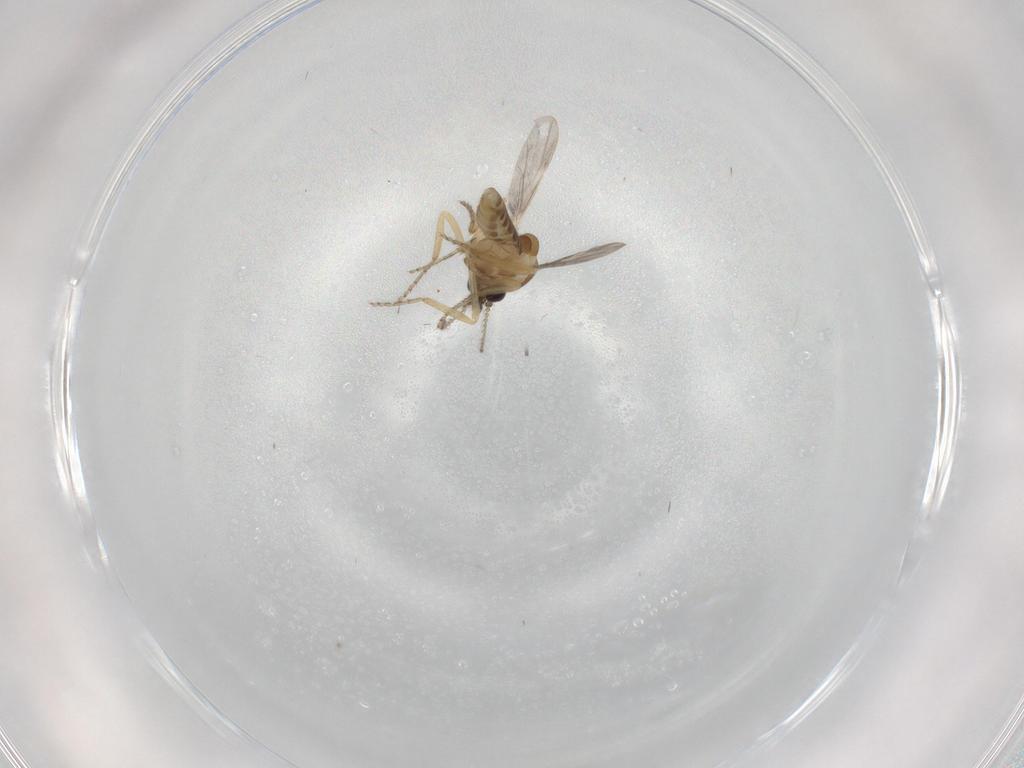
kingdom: Animalia
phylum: Arthropoda
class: Insecta
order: Diptera
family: Ceratopogonidae
